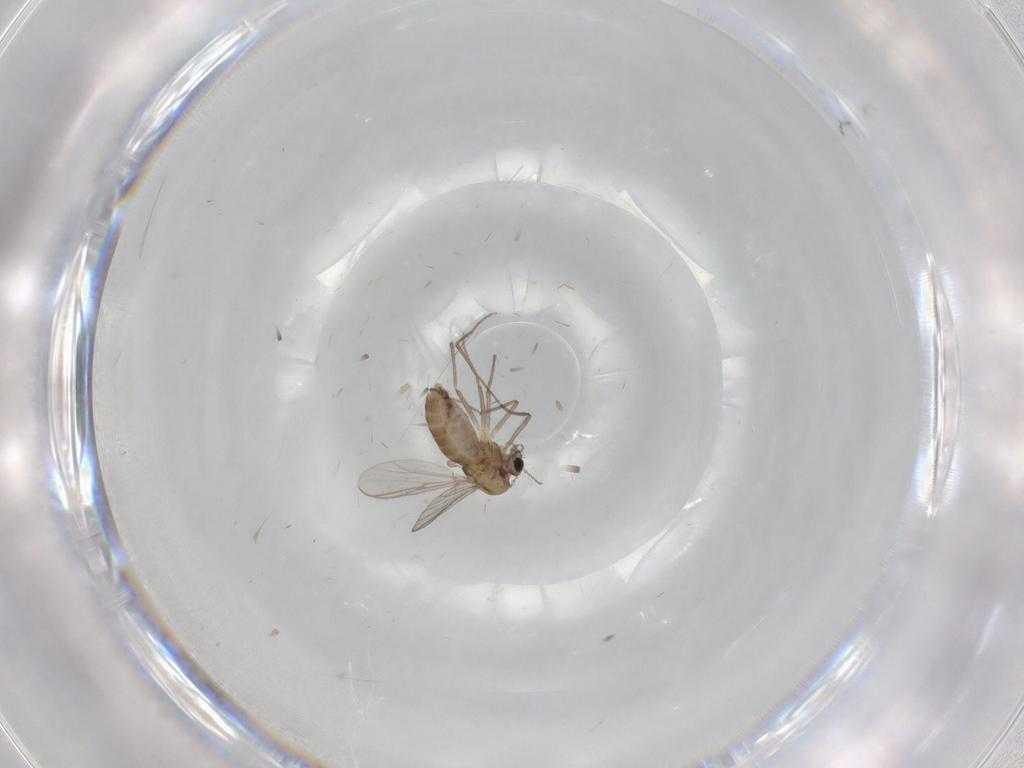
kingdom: Animalia
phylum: Arthropoda
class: Insecta
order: Diptera
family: Chironomidae
